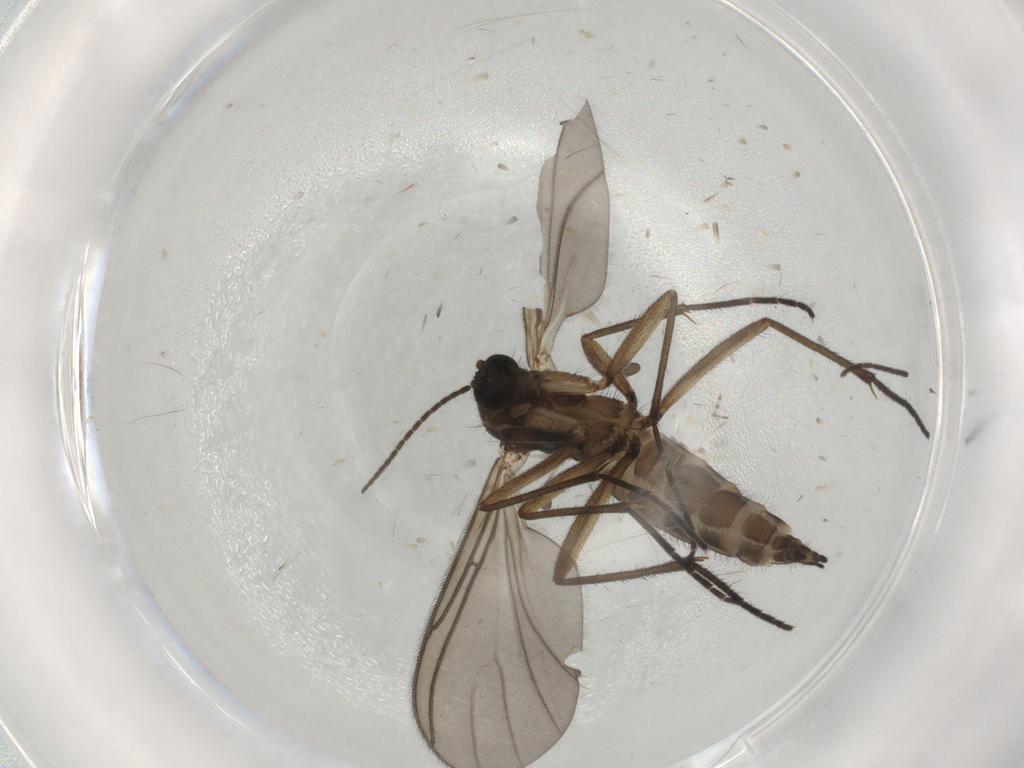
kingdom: Animalia
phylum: Arthropoda
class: Insecta
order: Diptera
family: Sciaridae
